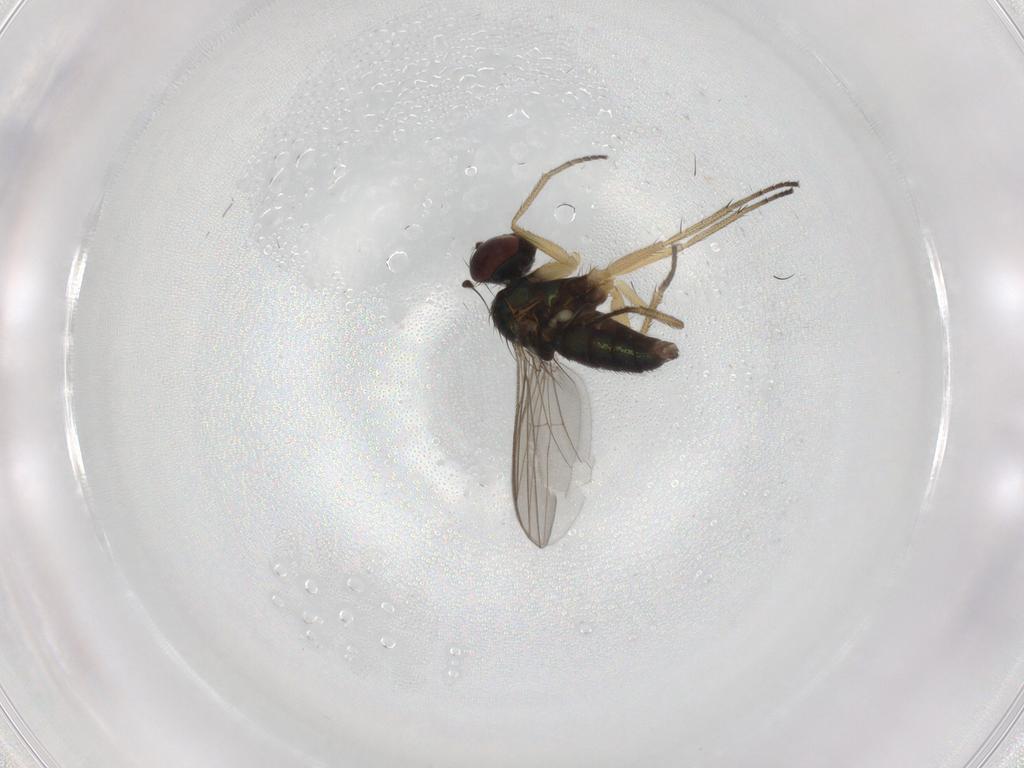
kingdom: Animalia
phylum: Arthropoda
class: Insecta
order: Diptera
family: Dolichopodidae
